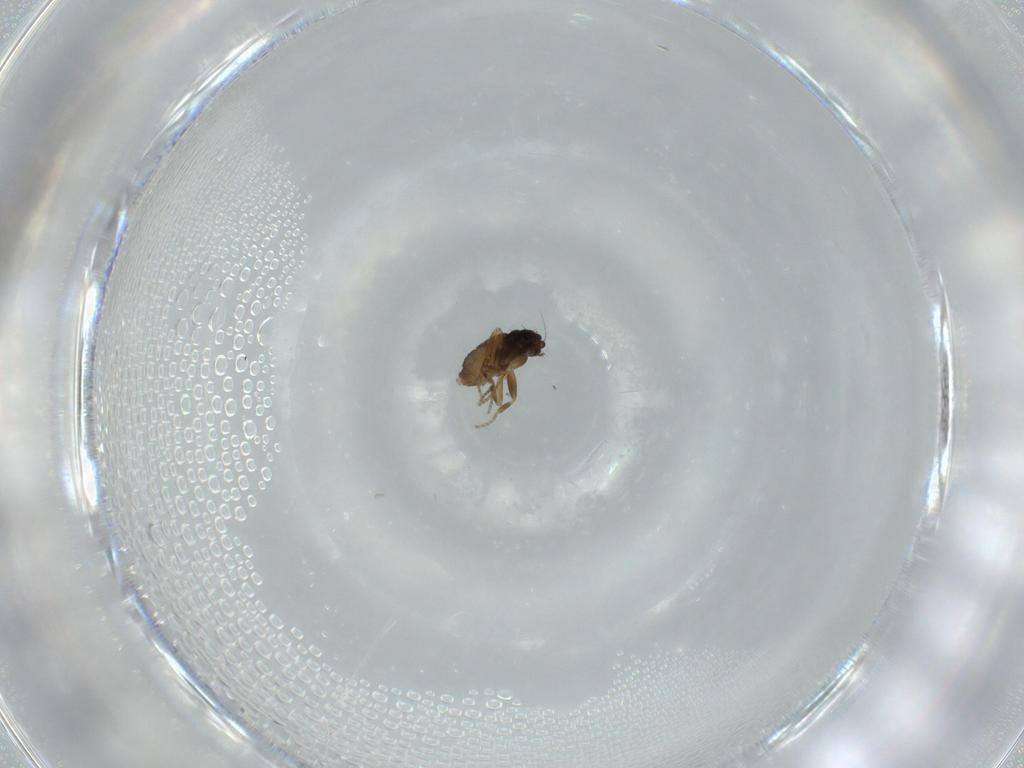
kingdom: Animalia
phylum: Arthropoda
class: Insecta
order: Diptera
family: Phoridae
